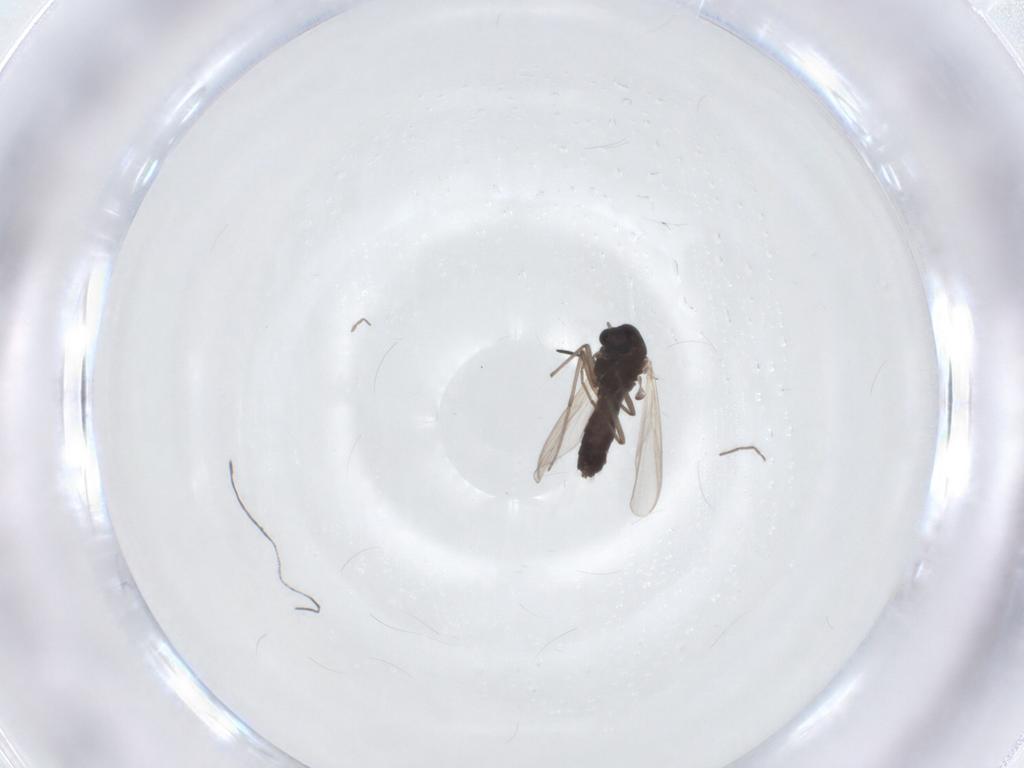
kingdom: Animalia
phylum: Arthropoda
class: Insecta
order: Diptera
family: Chironomidae
